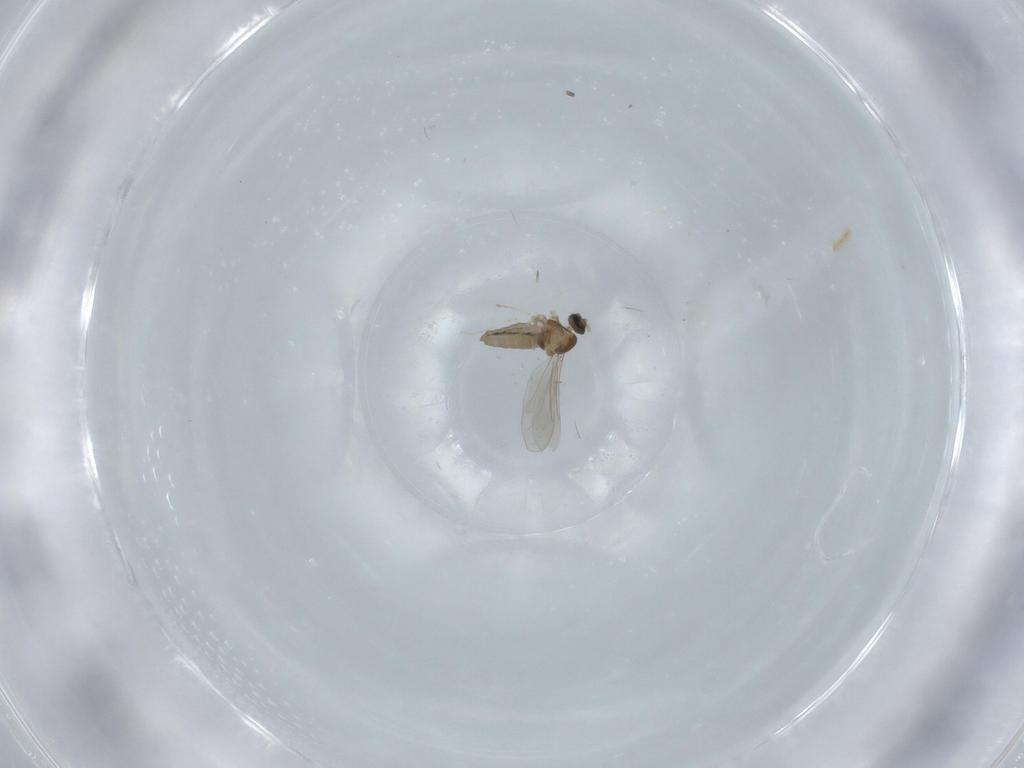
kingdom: Animalia
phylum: Arthropoda
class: Insecta
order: Diptera
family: Cecidomyiidae
